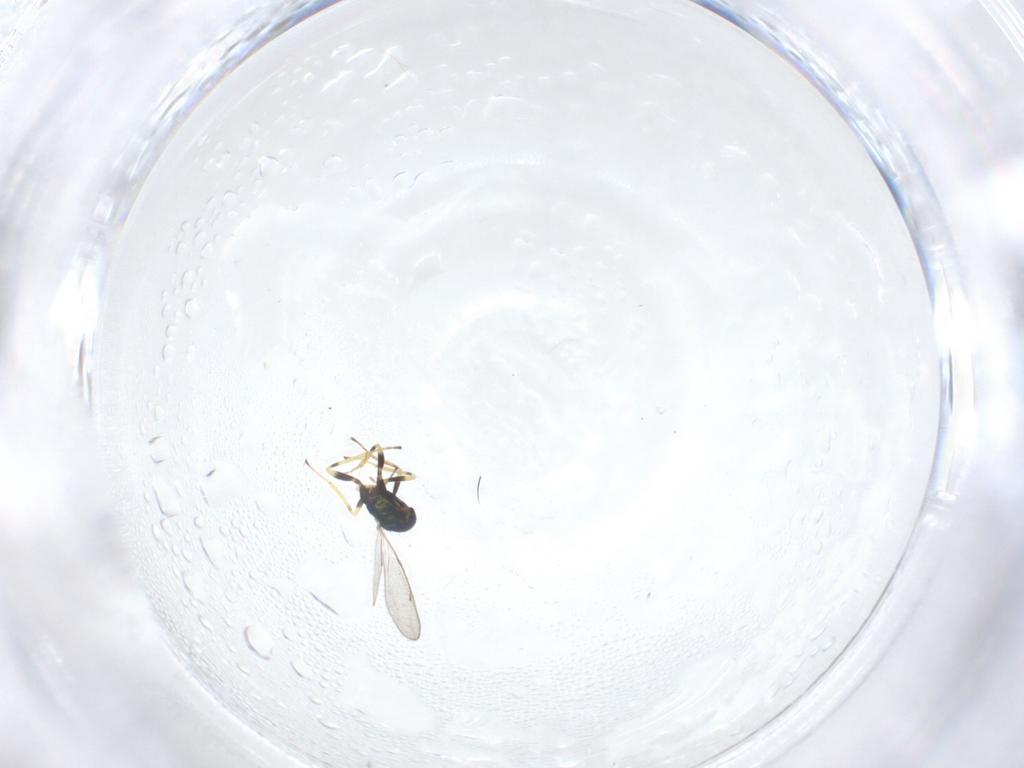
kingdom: Animalia
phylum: Arthropoda
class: Insecta
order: Hymenoptera
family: Eulophidae
